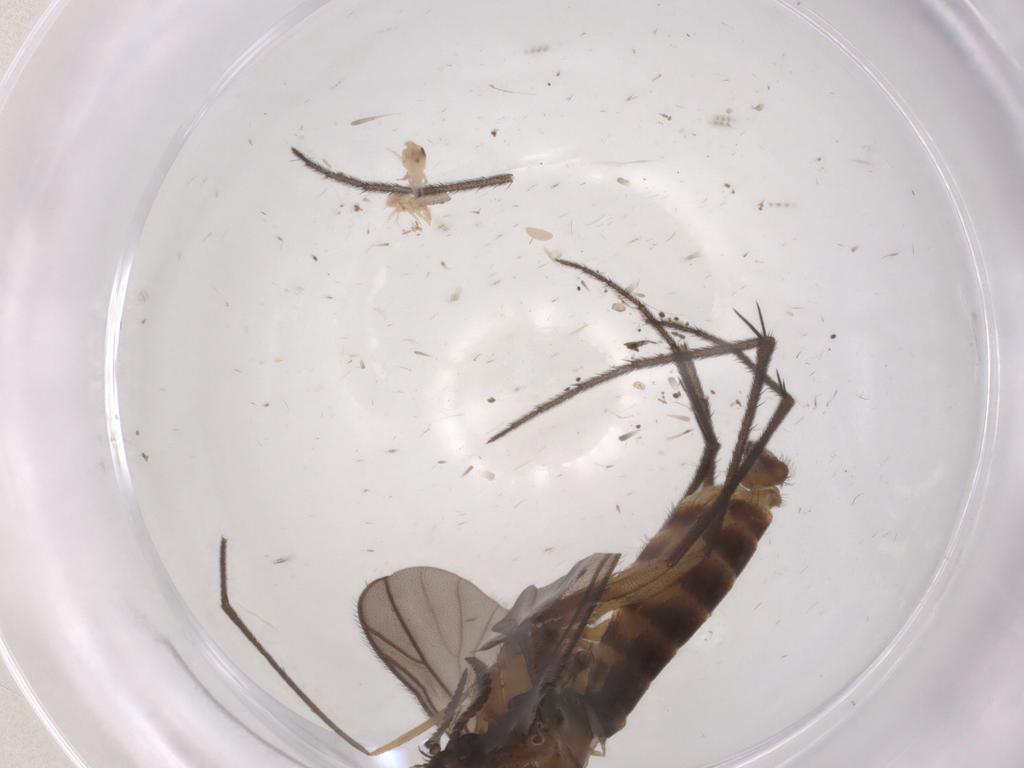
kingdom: Animalia
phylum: Arthropoda
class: Insecta
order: Diptera
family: Ditomyiidae
